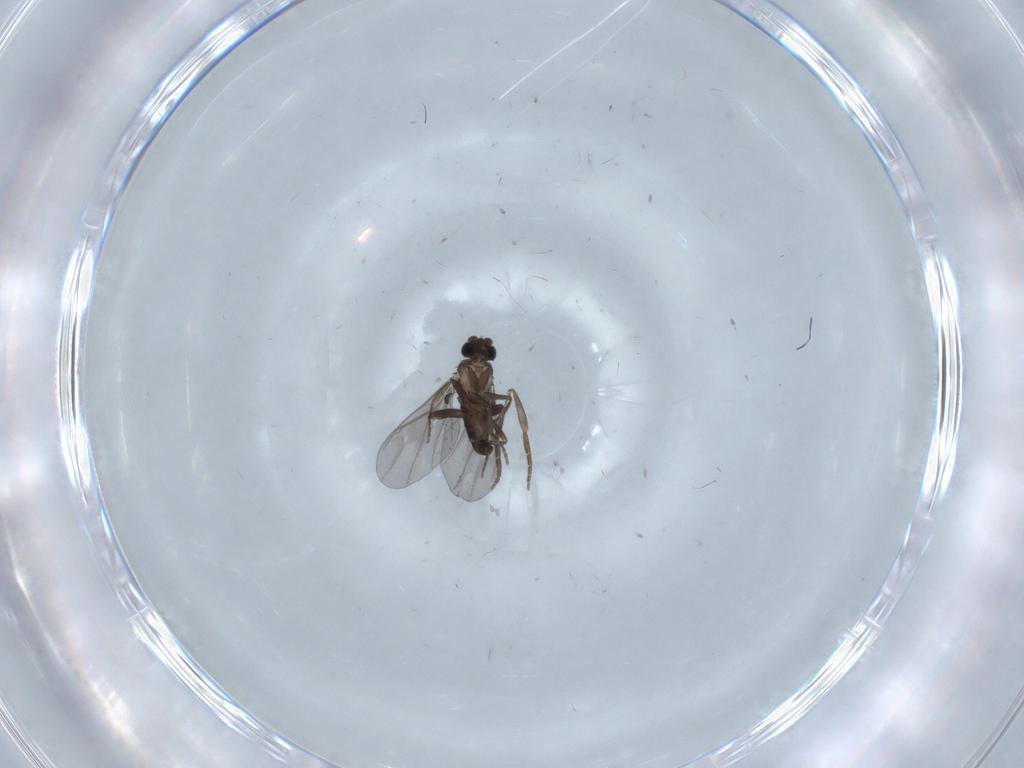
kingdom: Animalia
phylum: Arthropoda
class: Insecta
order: Diptera
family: Phoridae
